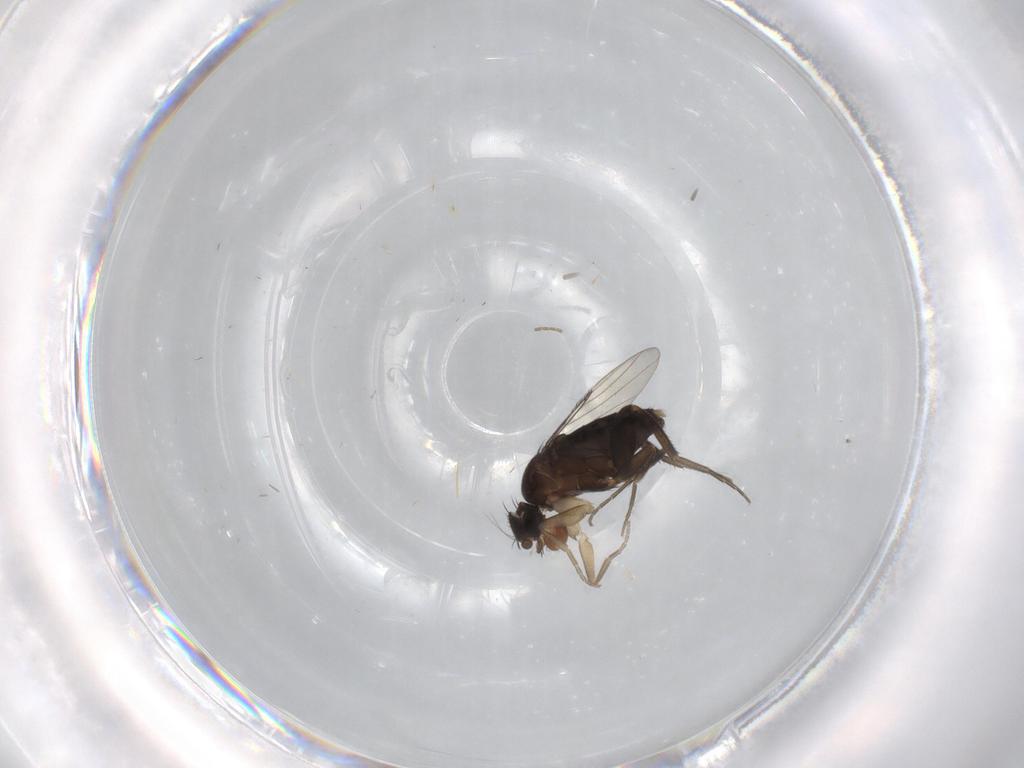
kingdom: Animalia
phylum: Arthropoda
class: Insecta
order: Diptera
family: Phoridae
